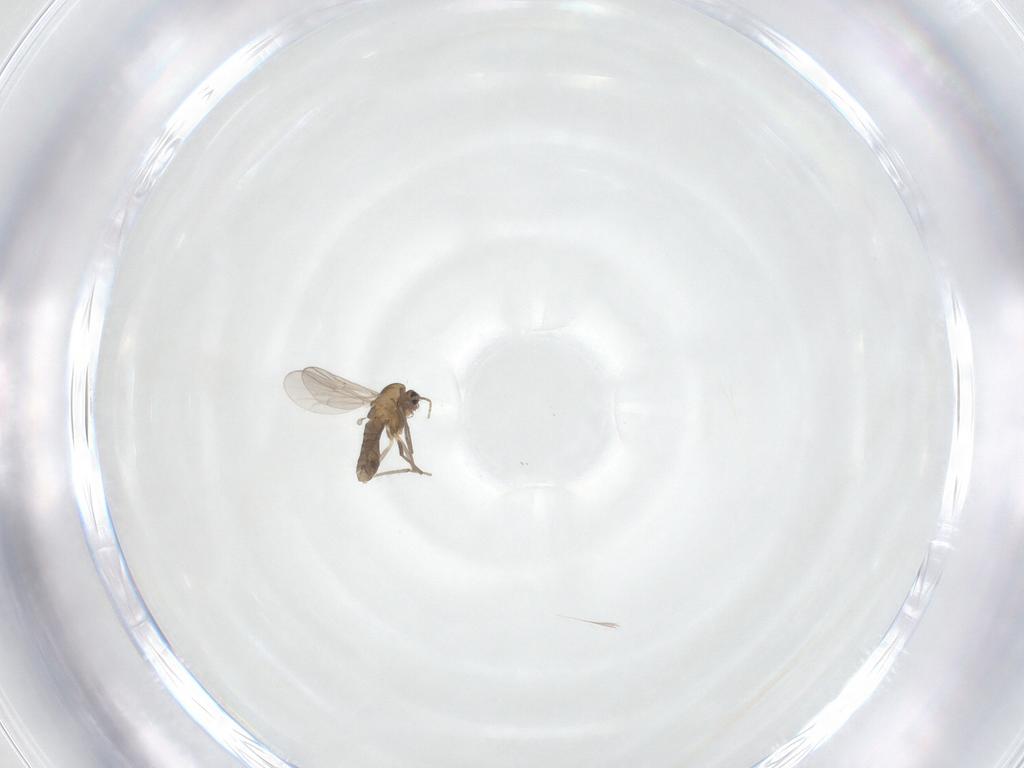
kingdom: Animalia
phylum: Arthropoda
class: Insecta
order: Diptera
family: Chironomidae
